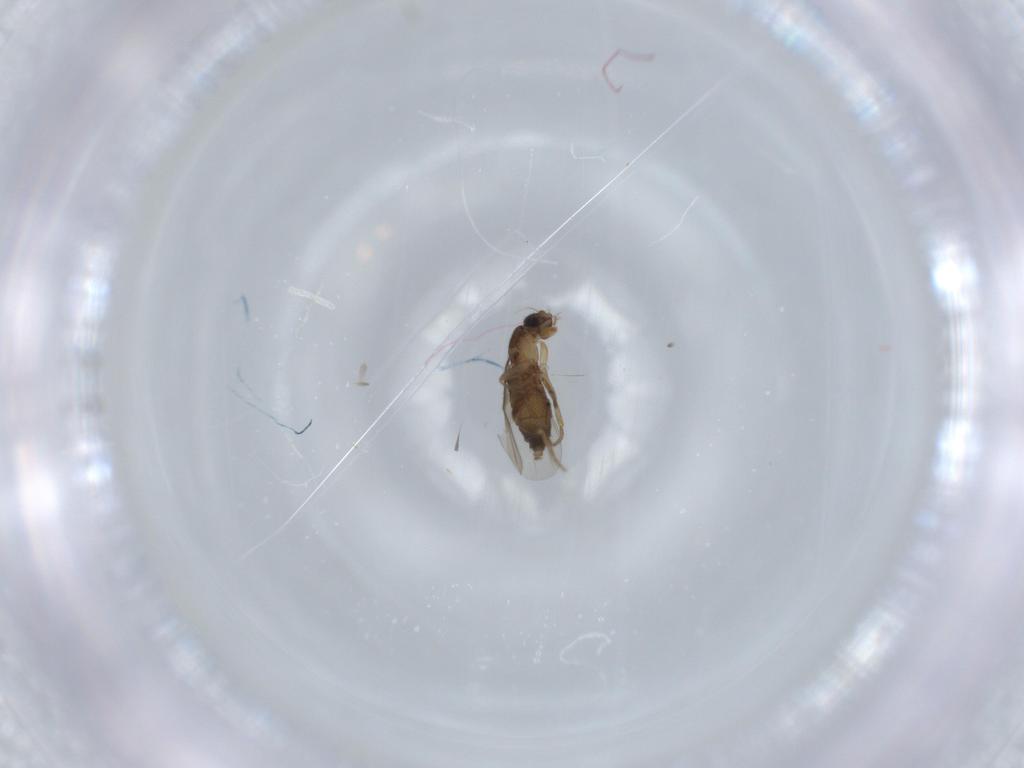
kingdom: Animalia
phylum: Arthropoda
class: Insecta
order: Diptera
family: Phoridae
